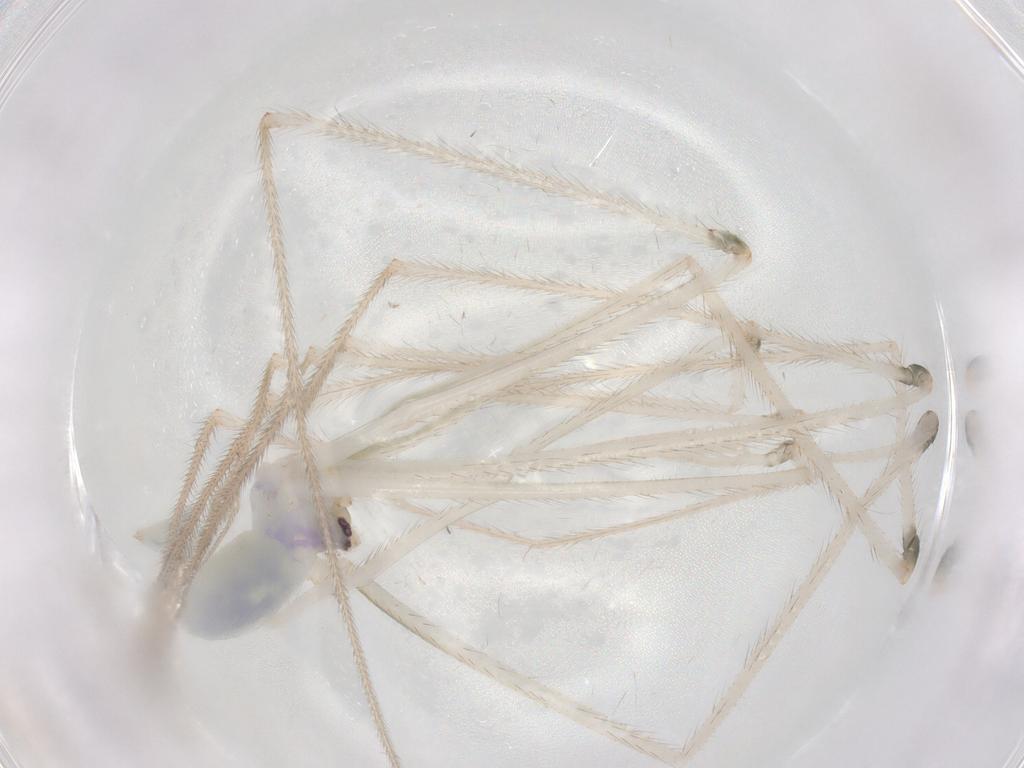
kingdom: Animalia
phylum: Arthropoda
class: Arachnida
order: Araneae
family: Pholcidae
